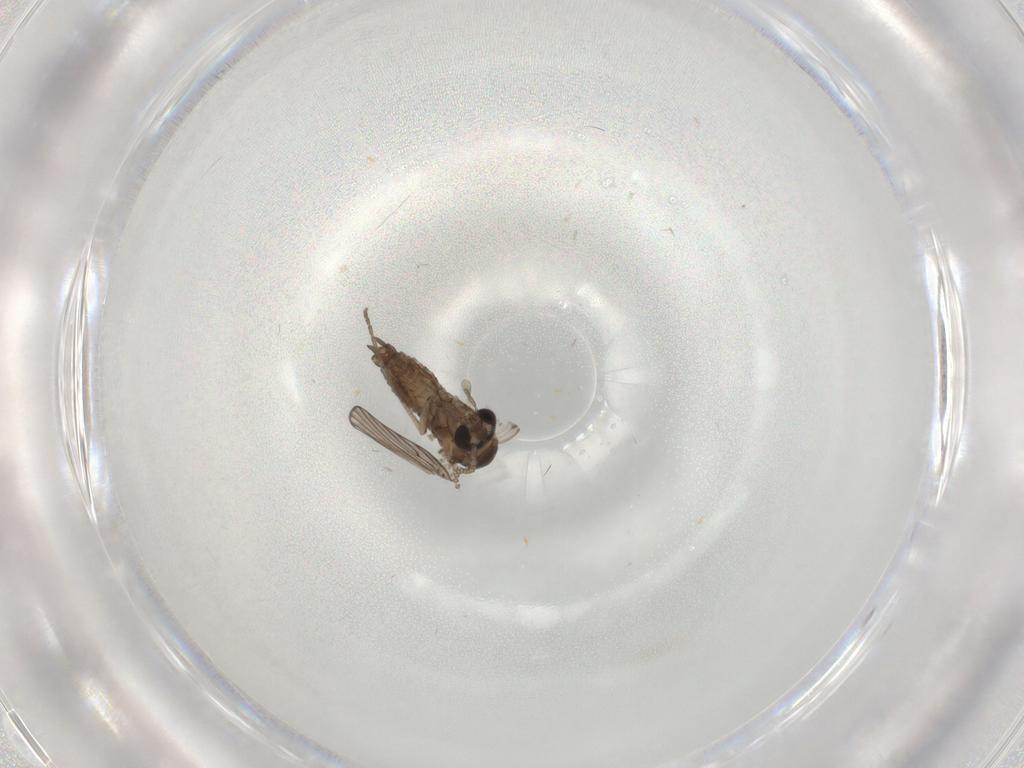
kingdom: Animalia
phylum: Arthropoda
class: Insecta
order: Diptera
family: Psychodidae
